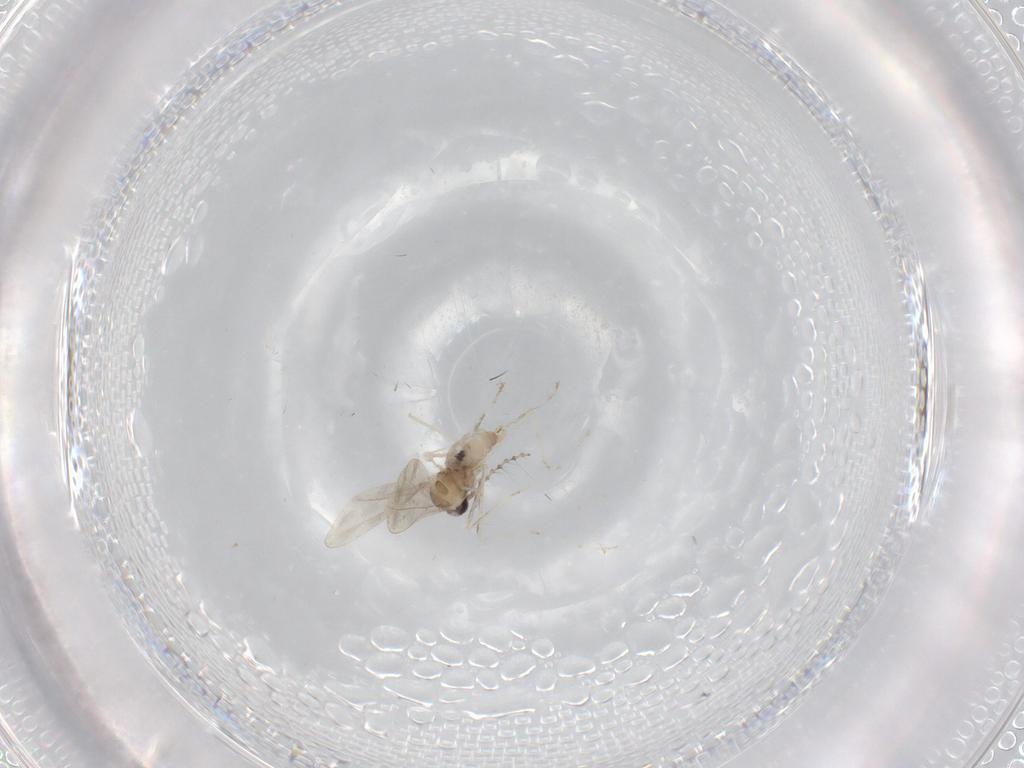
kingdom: Animalia
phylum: Arthropoda
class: Insecta
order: Diptera
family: Cecidomyiidae
